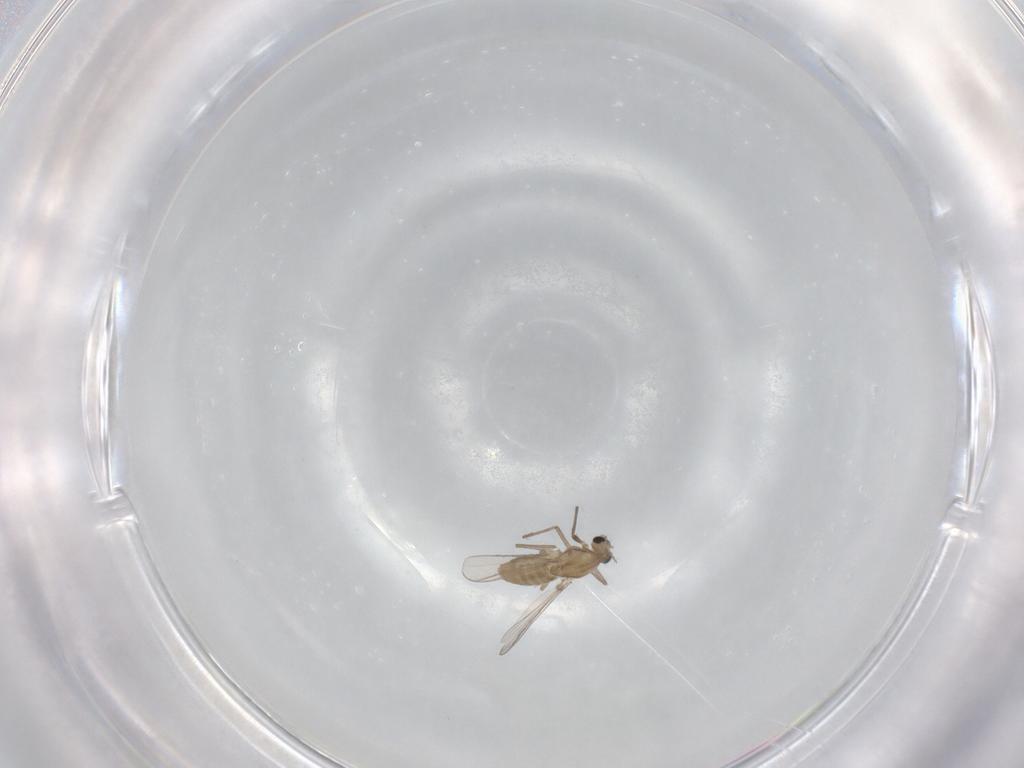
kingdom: Animalia
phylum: Arthropoda
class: Insecta
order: Diptera
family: Chironomidae
